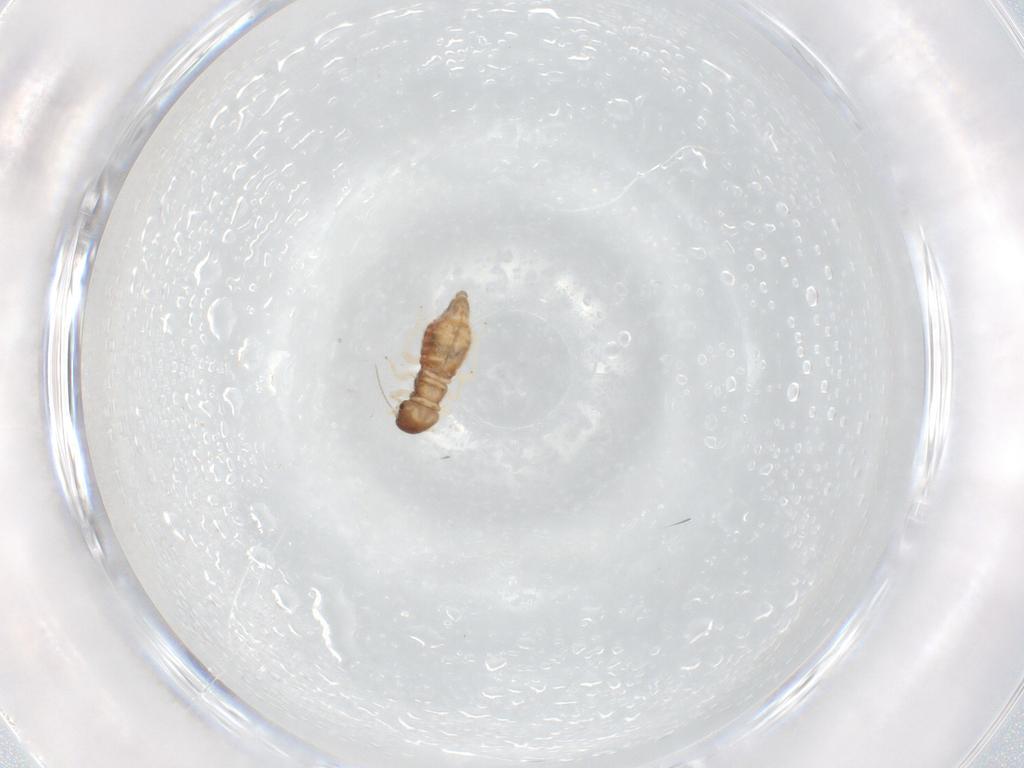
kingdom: Animalia
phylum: Arthropoda
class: Insecta
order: Psocodea
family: Archipsocidae
